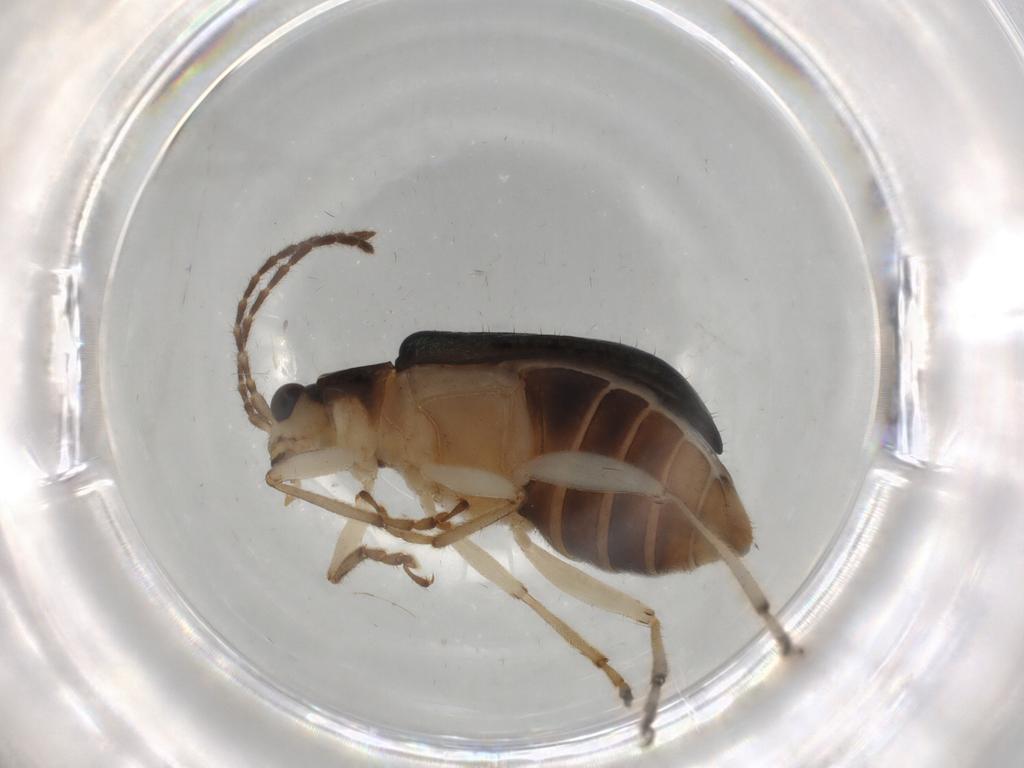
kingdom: Animalia
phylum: Arthropoda
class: Insecta
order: Coleoptera
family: Chrysomelidae
